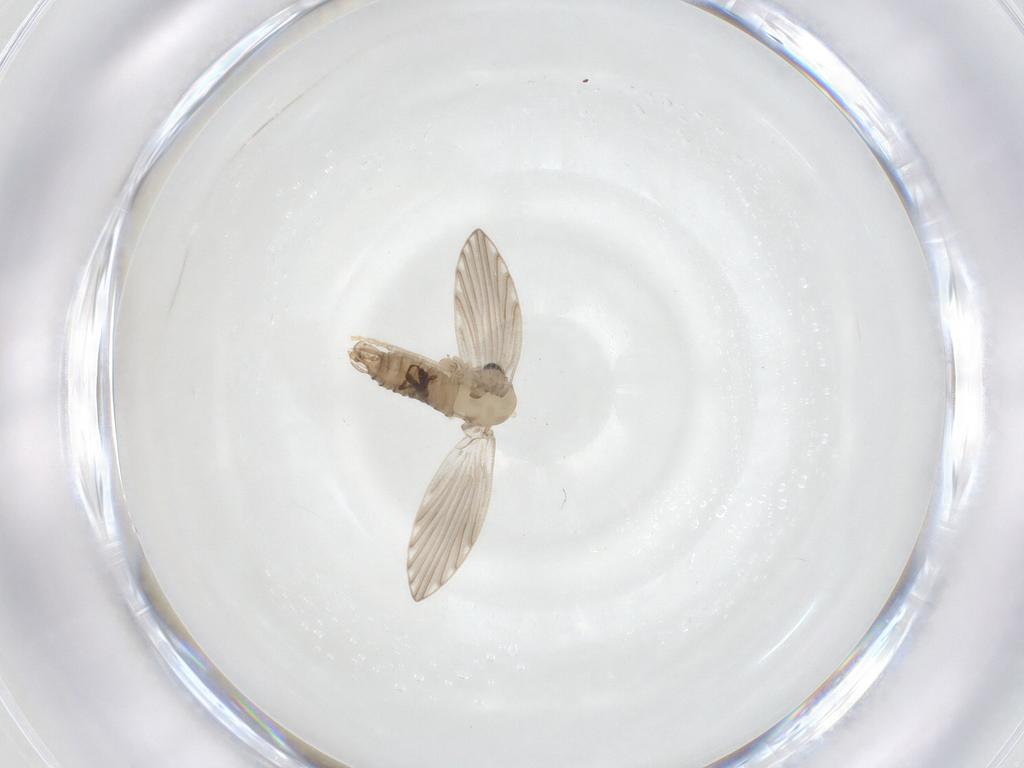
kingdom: Animalia
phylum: Arthropoda
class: Insecta
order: Diptera
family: Psychodidae
